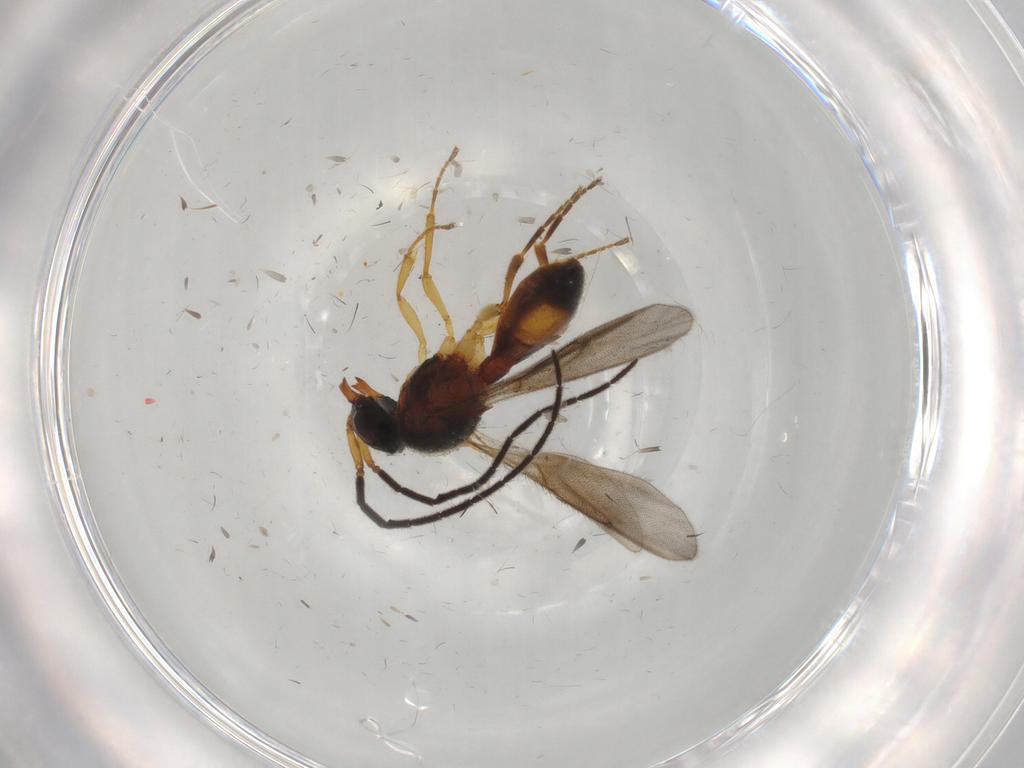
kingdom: Animalia
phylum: Arthropoda
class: Insecta
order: Hymenoptera
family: Scelionidae
